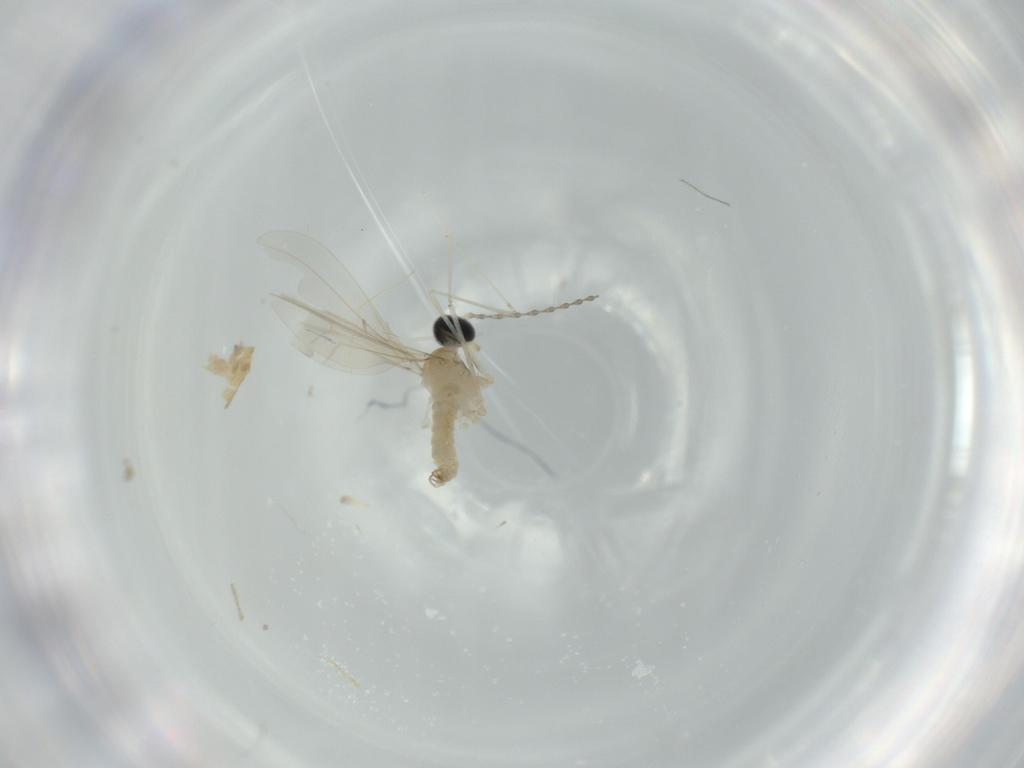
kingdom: Animalia
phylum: Arthropoda
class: Insecta
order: Diptera
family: Cecidomyiidae
